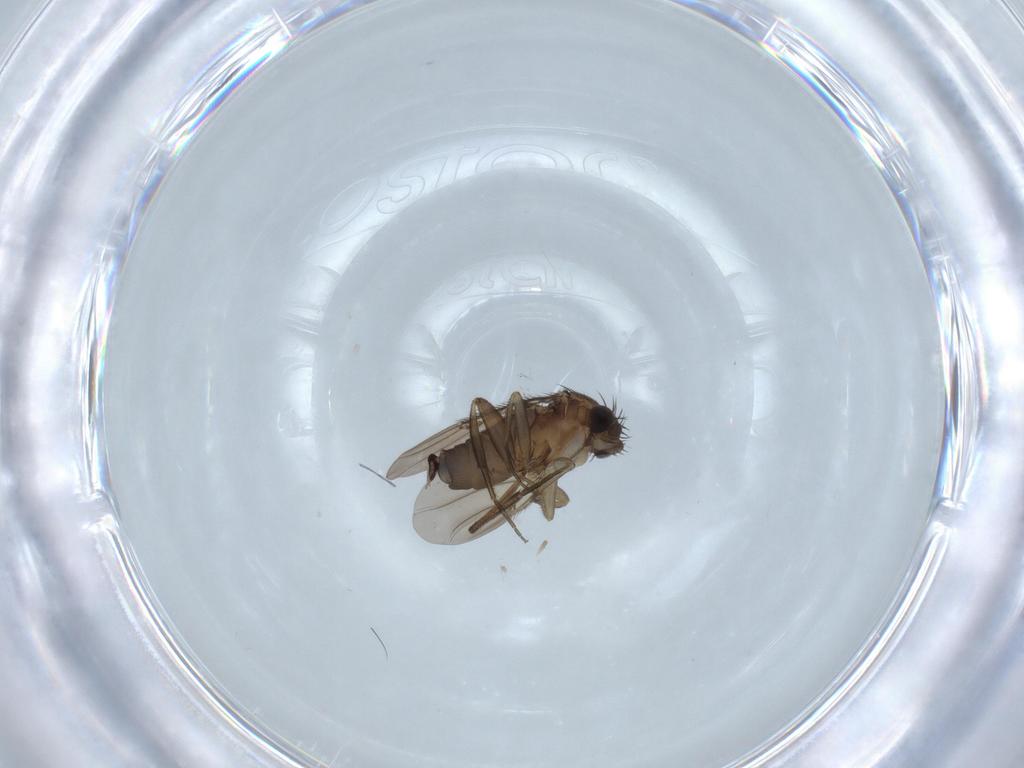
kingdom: Animalia
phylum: Arthropoda
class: Insecta
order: Diptera
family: Cecidomyiidae
